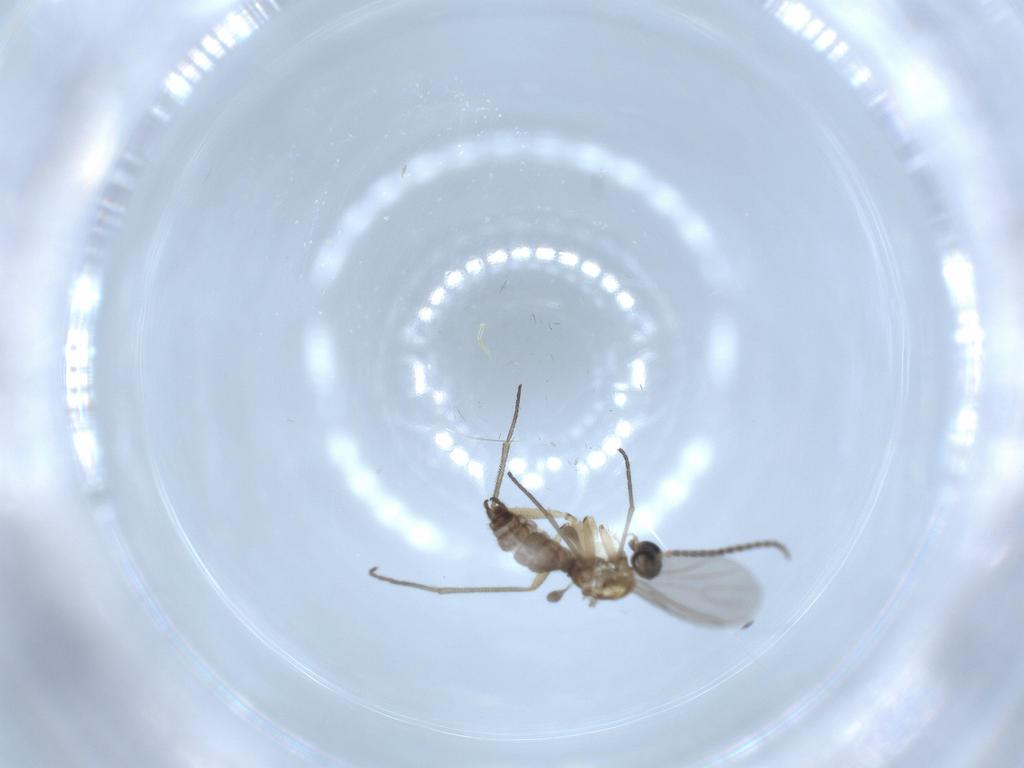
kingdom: Animalia
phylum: Arthropoda
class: Insecta
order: Diptera
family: Sciaridae
